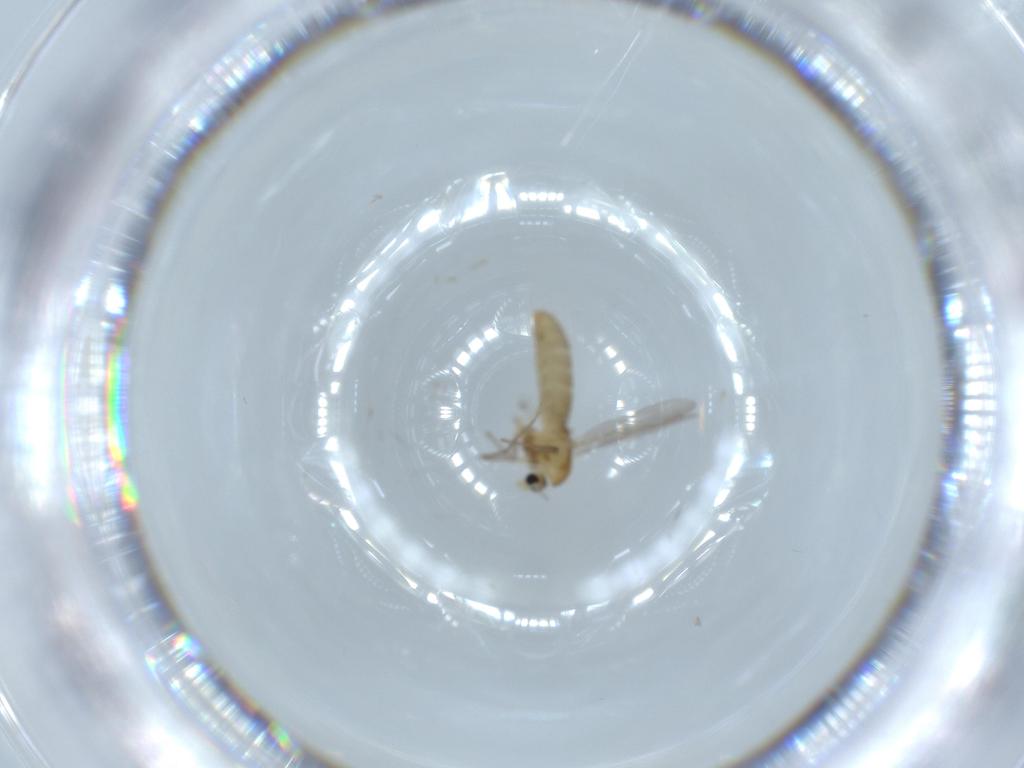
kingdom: Animalia
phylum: Arthropoda
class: Insecta
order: Diptera
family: Chironomidae
